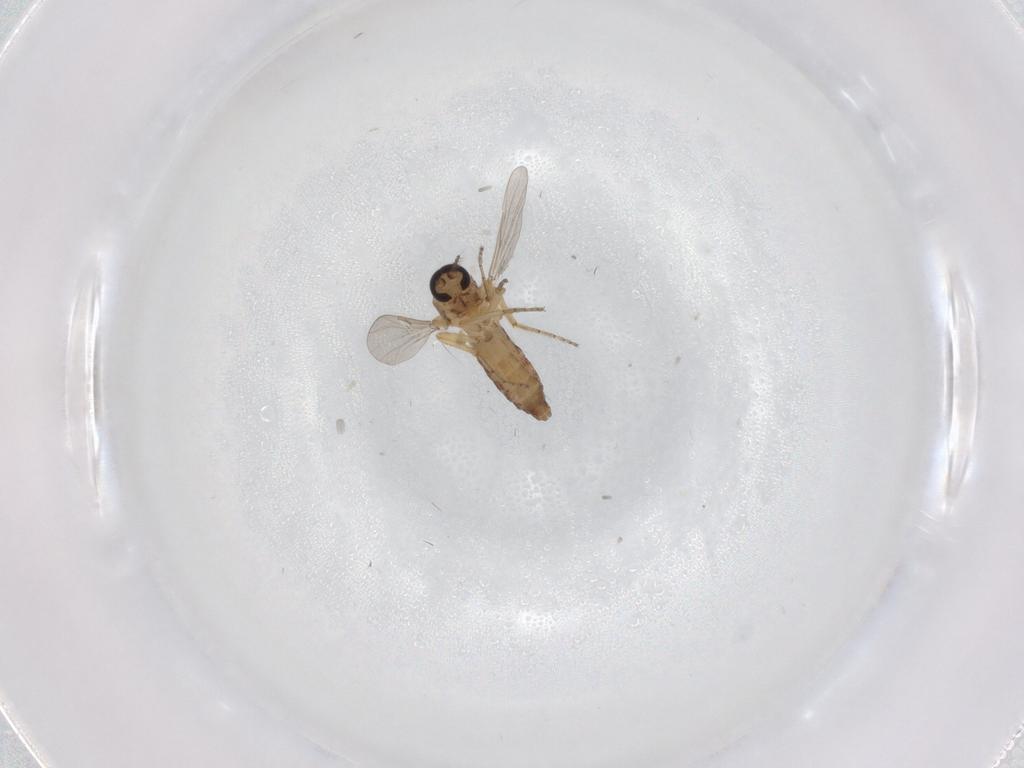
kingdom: Animalia
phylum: Arthropoda
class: Insecta
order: Diptera
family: Ceratopogonidae
